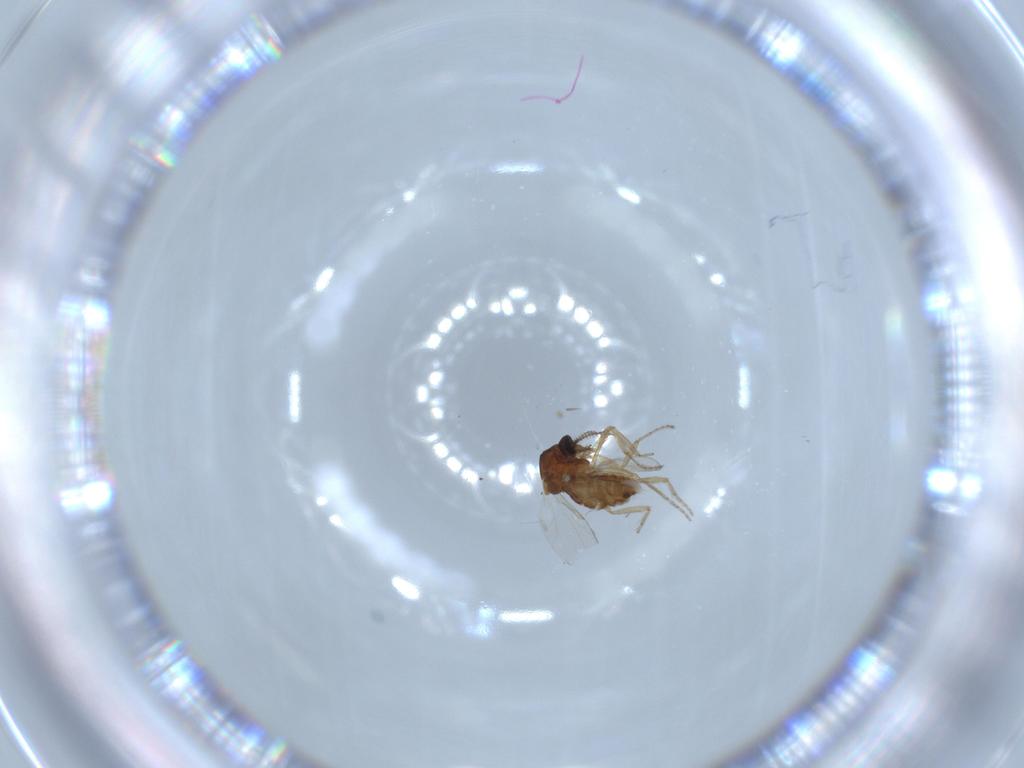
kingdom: Animalia
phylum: Arthropoda
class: Insecta
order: Diptera
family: Ceratopogonidae
